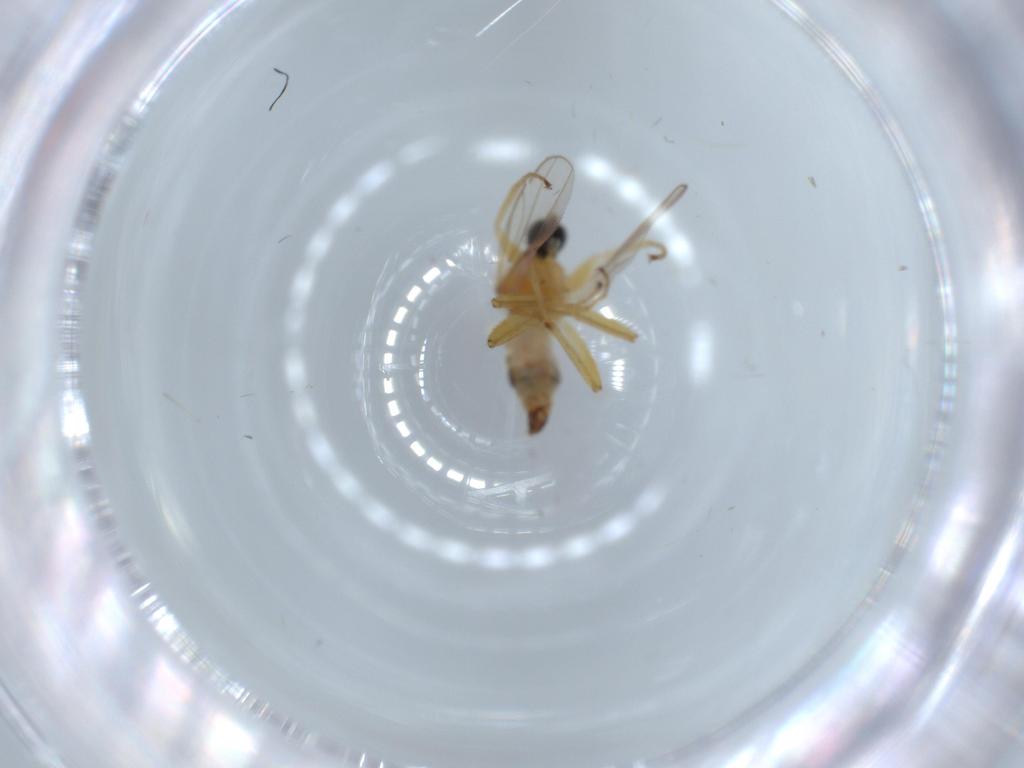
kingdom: Animalia
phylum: Arthropoda
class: Insecta
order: Diptera
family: Hybotidae
